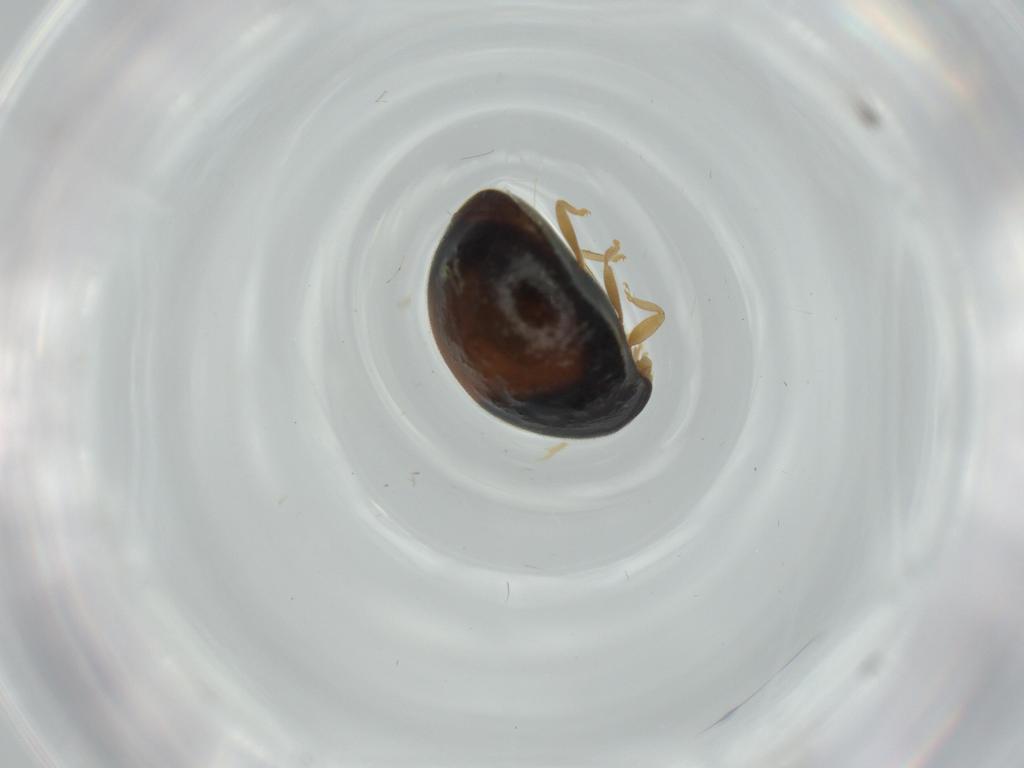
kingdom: Animalia
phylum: Arthropoda
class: Insecta
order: Coleoptera
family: Coccinellidae
